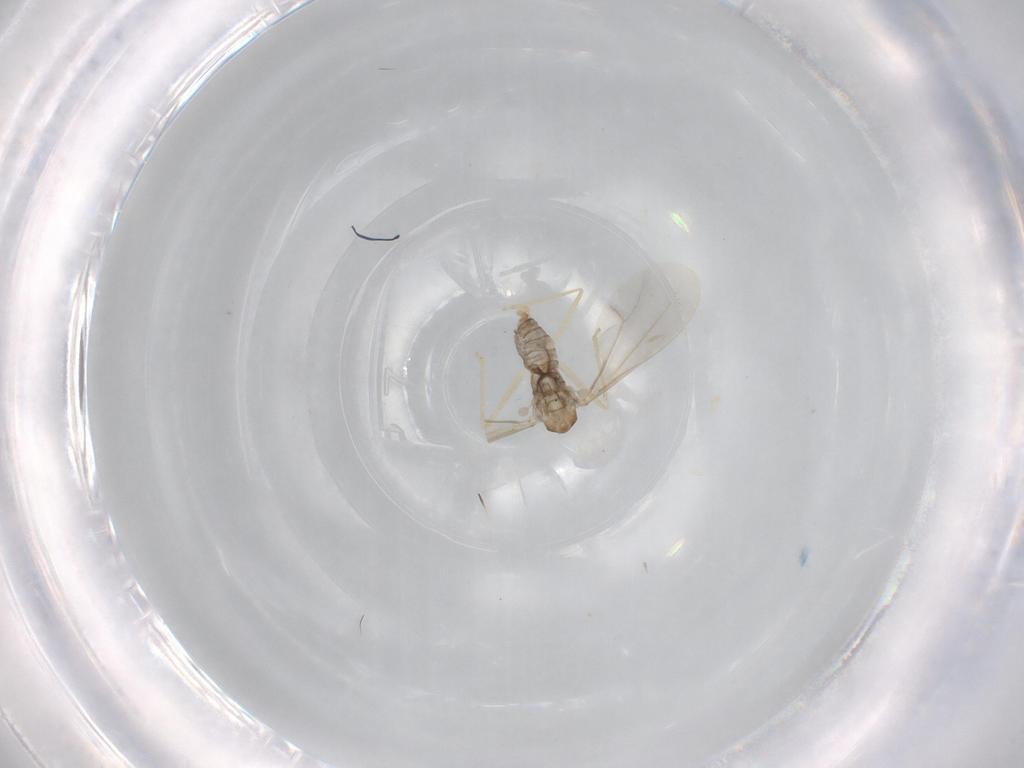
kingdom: Animalia
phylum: Arthropoda
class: Insecta
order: Diptera
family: Cecidomyiidae
